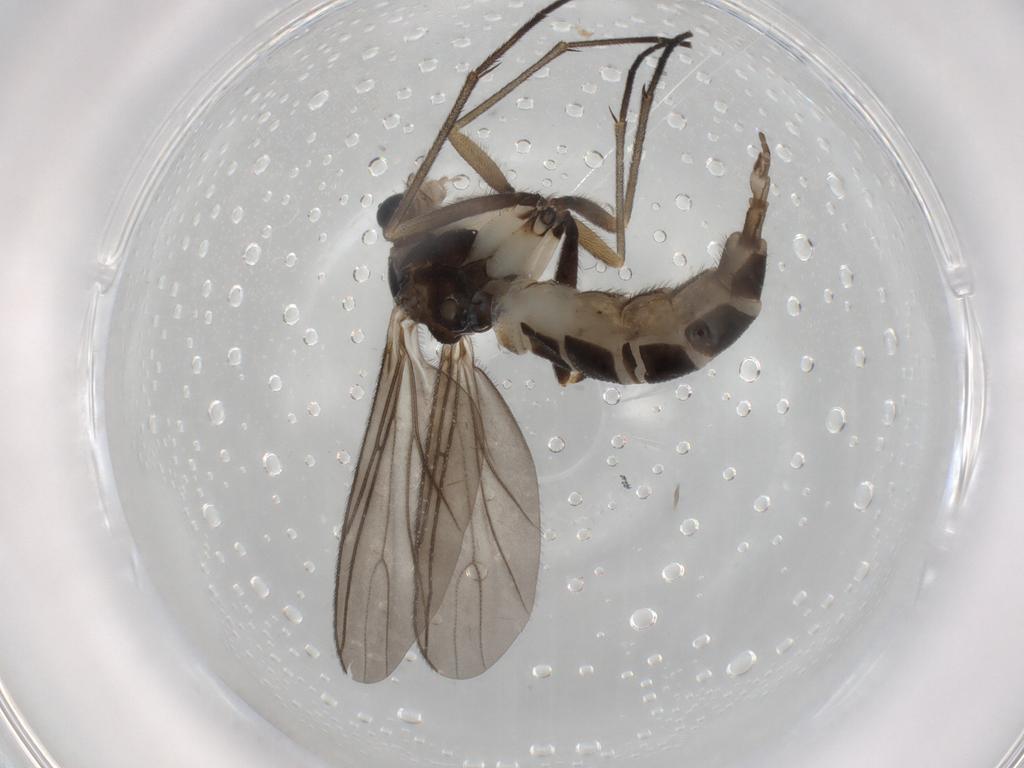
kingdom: Animalia
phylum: Arthropoda
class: Insecta
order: Diptera
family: Sciaridae
